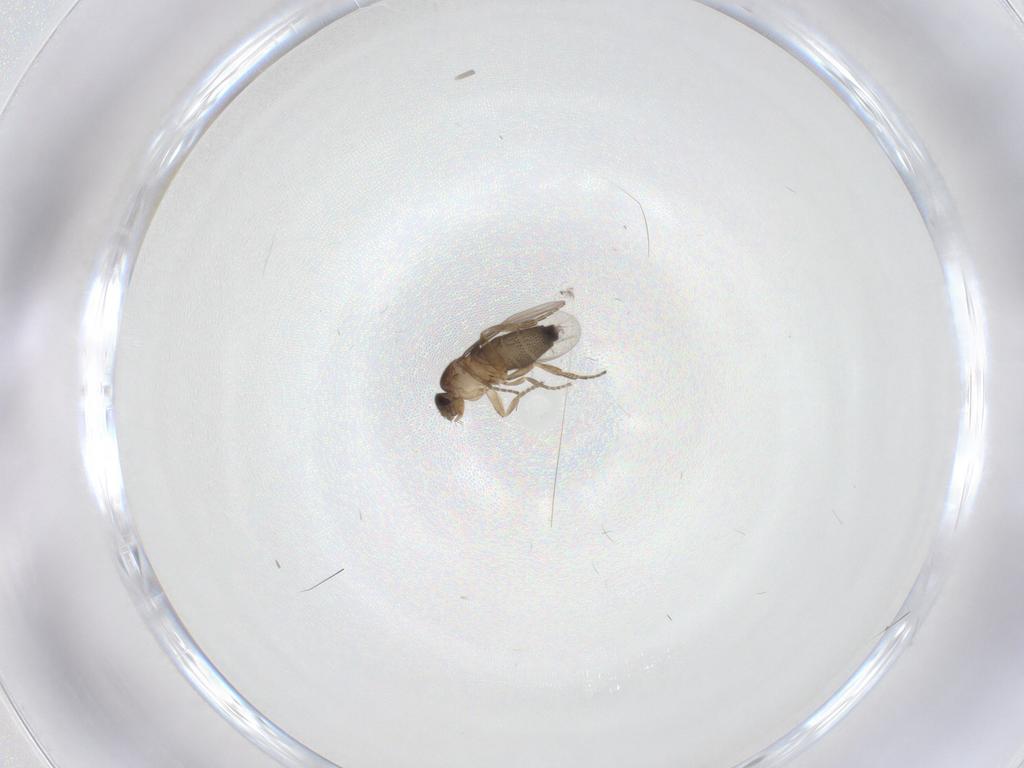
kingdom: Animalia
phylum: Arthropoda
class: Insecta
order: Diptera
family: Phoridae
